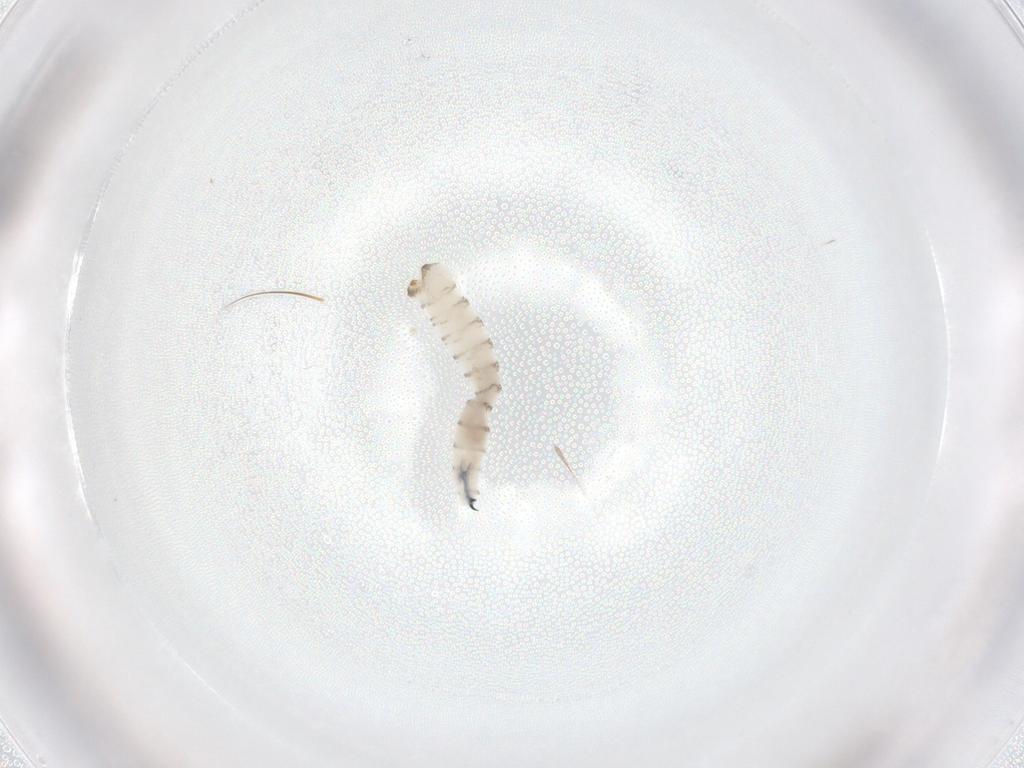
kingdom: Animalia
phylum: Arthropoda
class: Insecta
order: Diptera
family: Sarcophagidae
